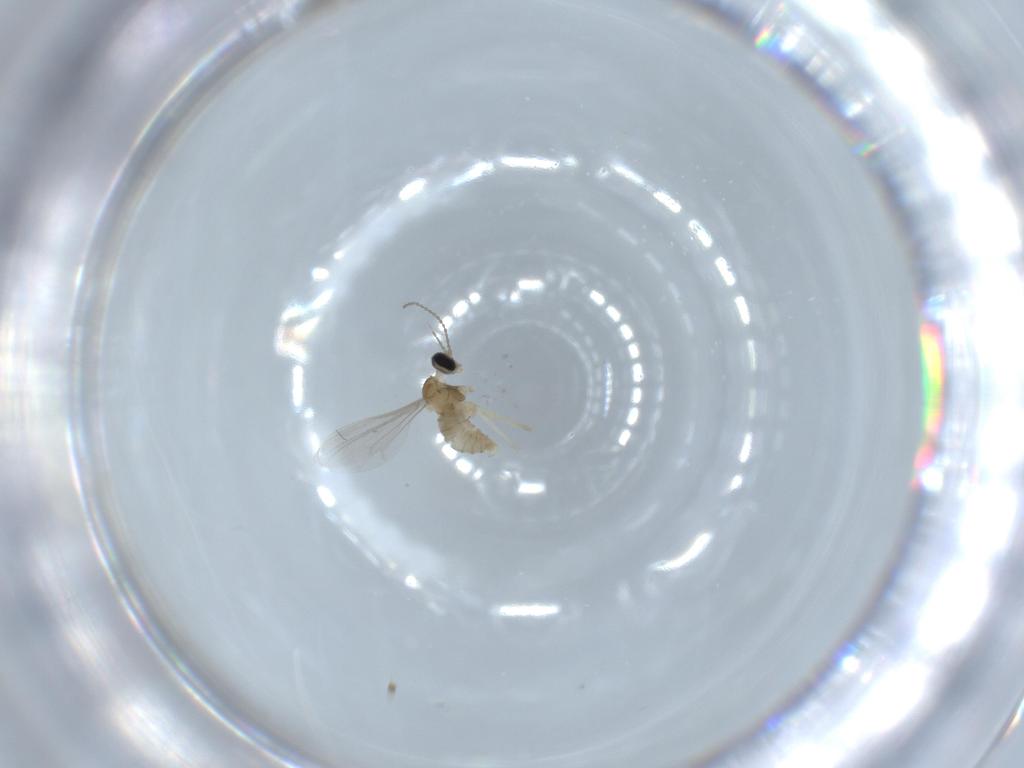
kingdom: Animalia
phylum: Arthropoda
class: Insecta
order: Diptera
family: Cecidomyiidae
